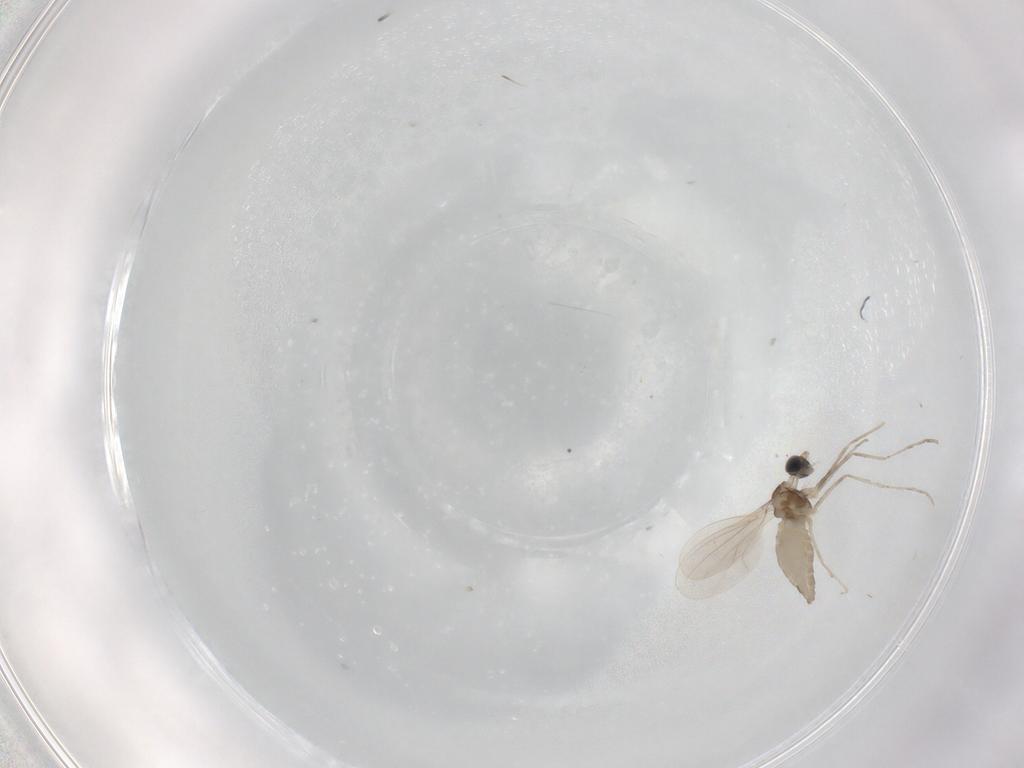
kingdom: Animalia
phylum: Arthropoda
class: Insecta
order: Diptera
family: Cecidomyiidae
